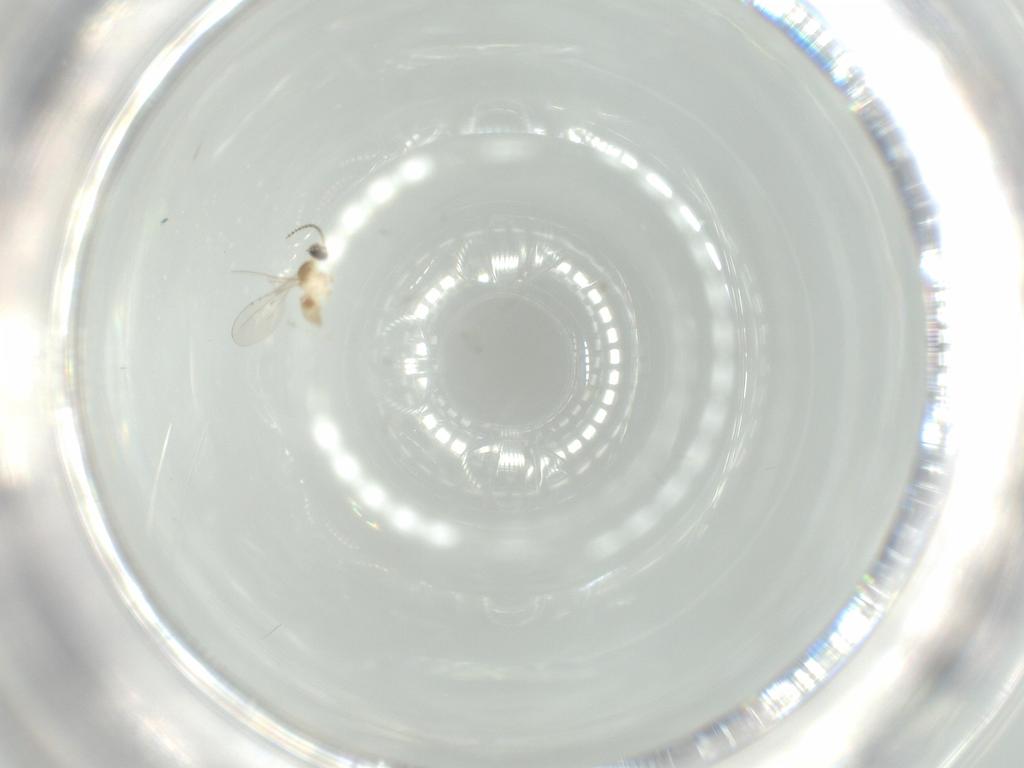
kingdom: Animalia
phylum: Arthropoda
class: Insecta
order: Diptera
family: Cecidomyiidae
